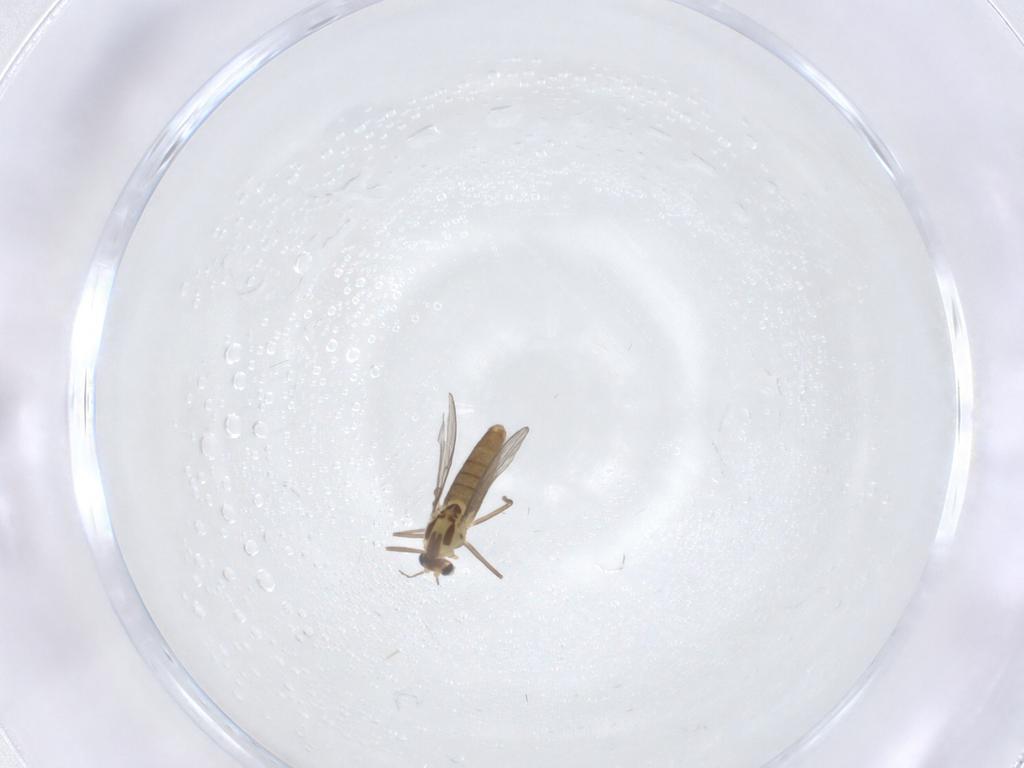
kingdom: Animalia
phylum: Arthropoda
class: Insecta
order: Diptera
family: Chironomidae
